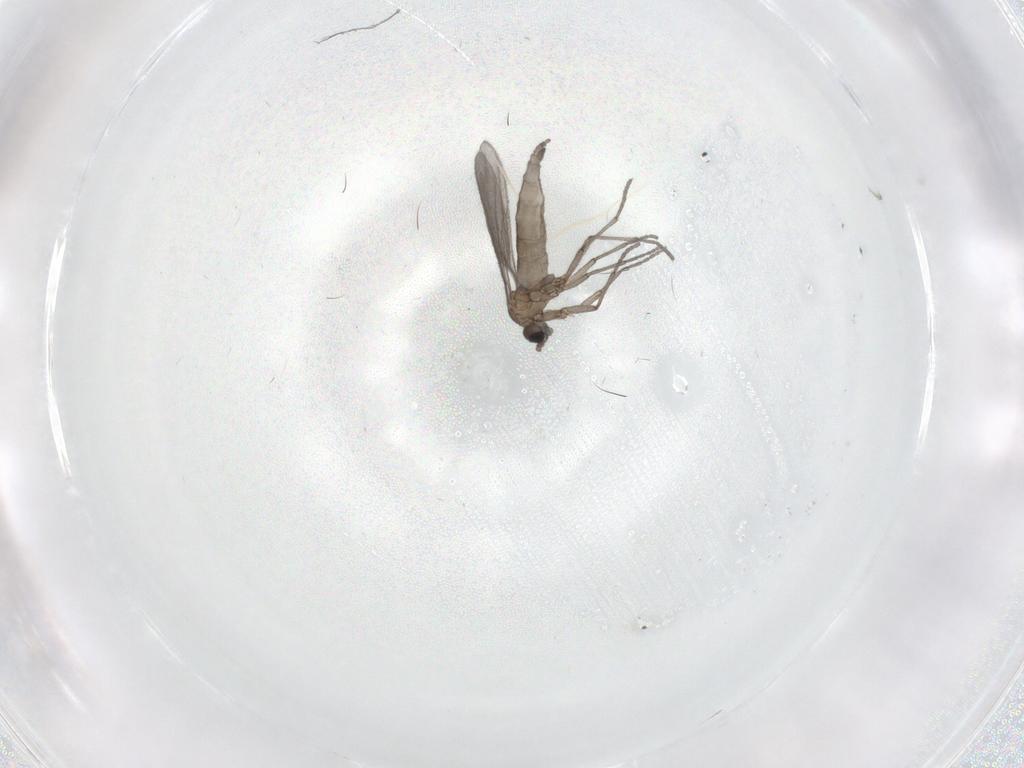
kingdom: Animalia
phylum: Arthropoda
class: Insecta
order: Diptera
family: Sciaridae
